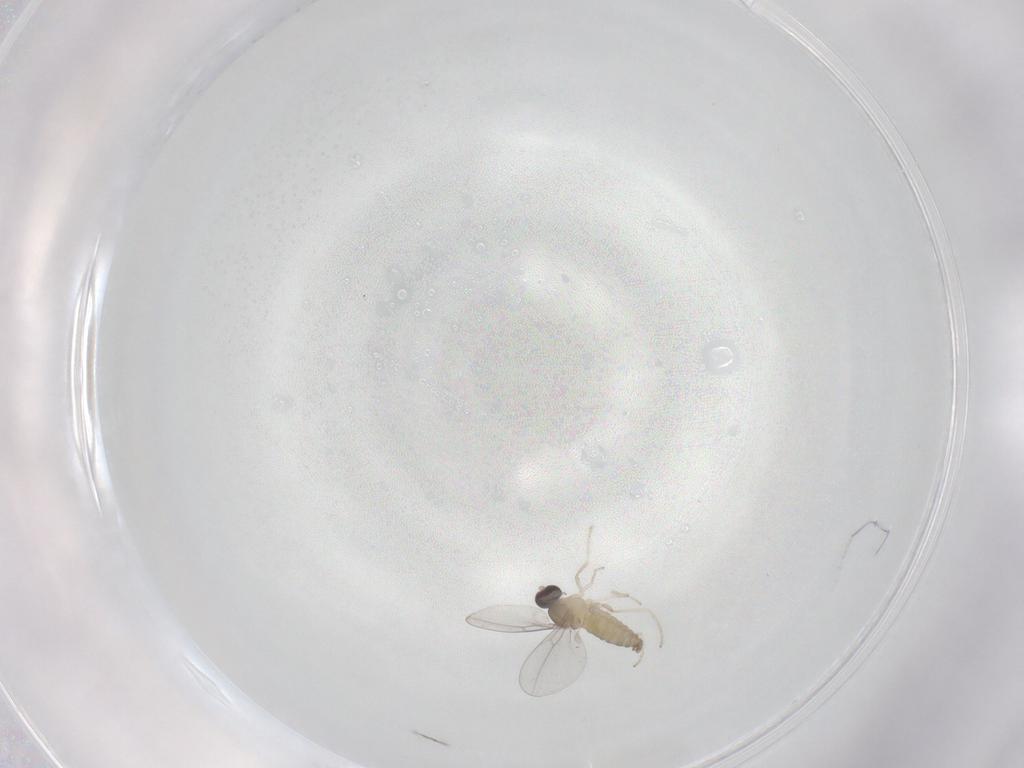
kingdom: Animalia
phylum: Arthropoda
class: Insecta
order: Diptera
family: Cecidomyiidae
